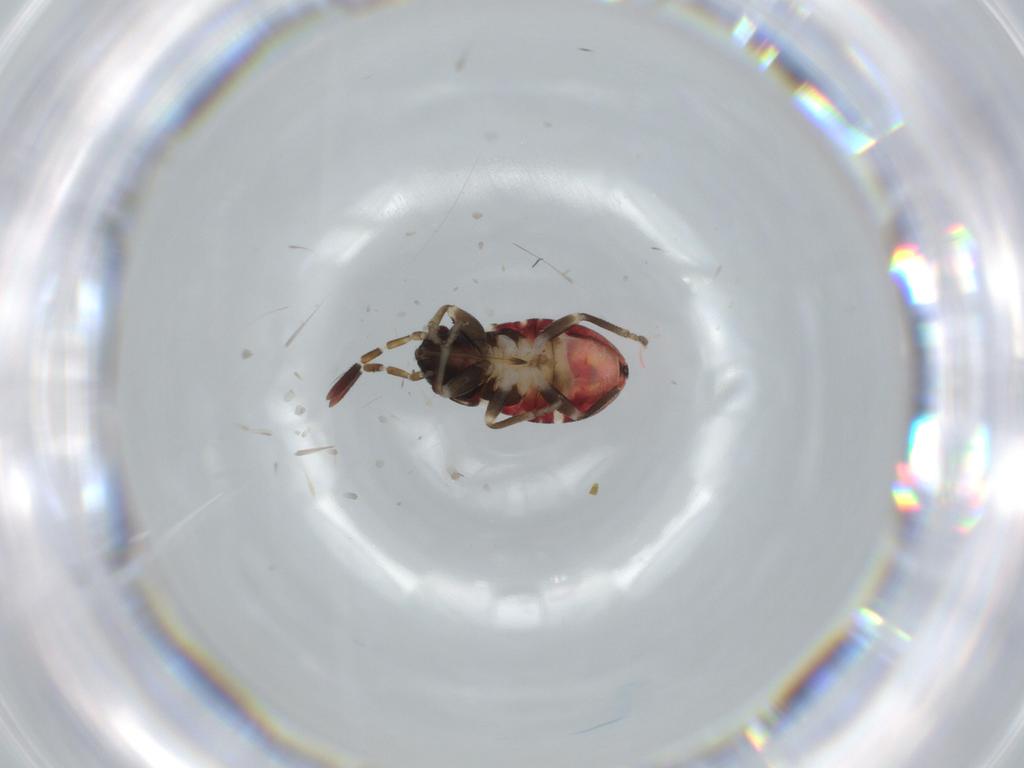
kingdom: Animalia
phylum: Arthropoda
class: Insecta
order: Hemiptera
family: Rhyparochromidae
